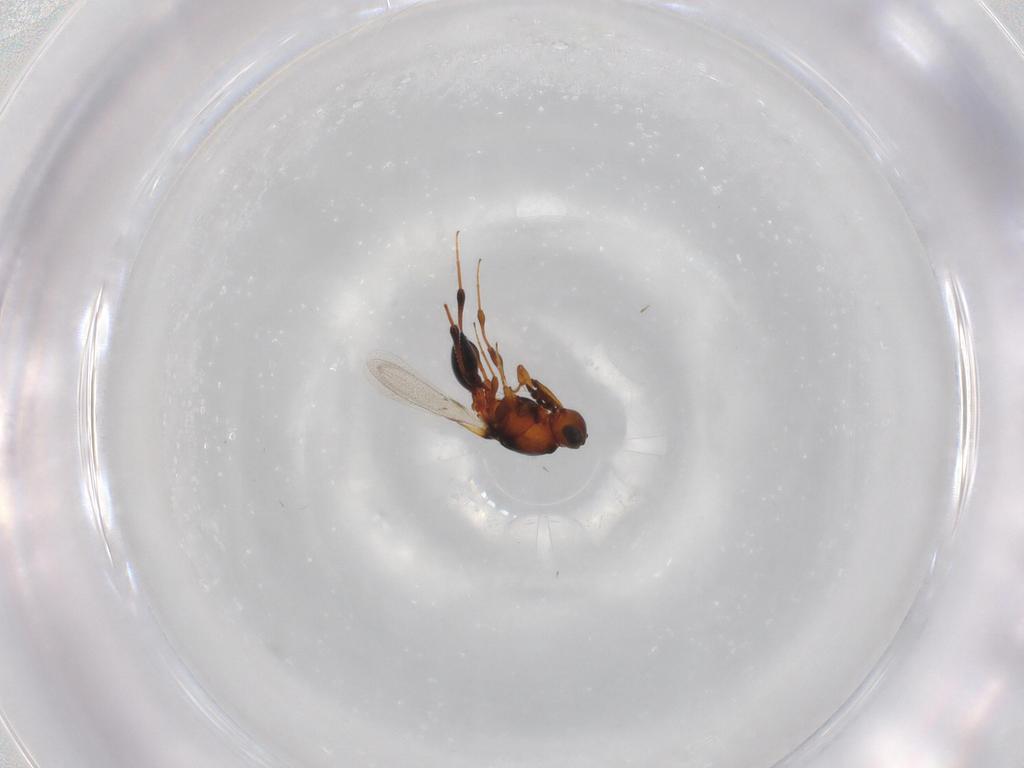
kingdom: Animalia
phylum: Arthropoda
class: Insecta
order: Hymenoptera
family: Platygastridae
